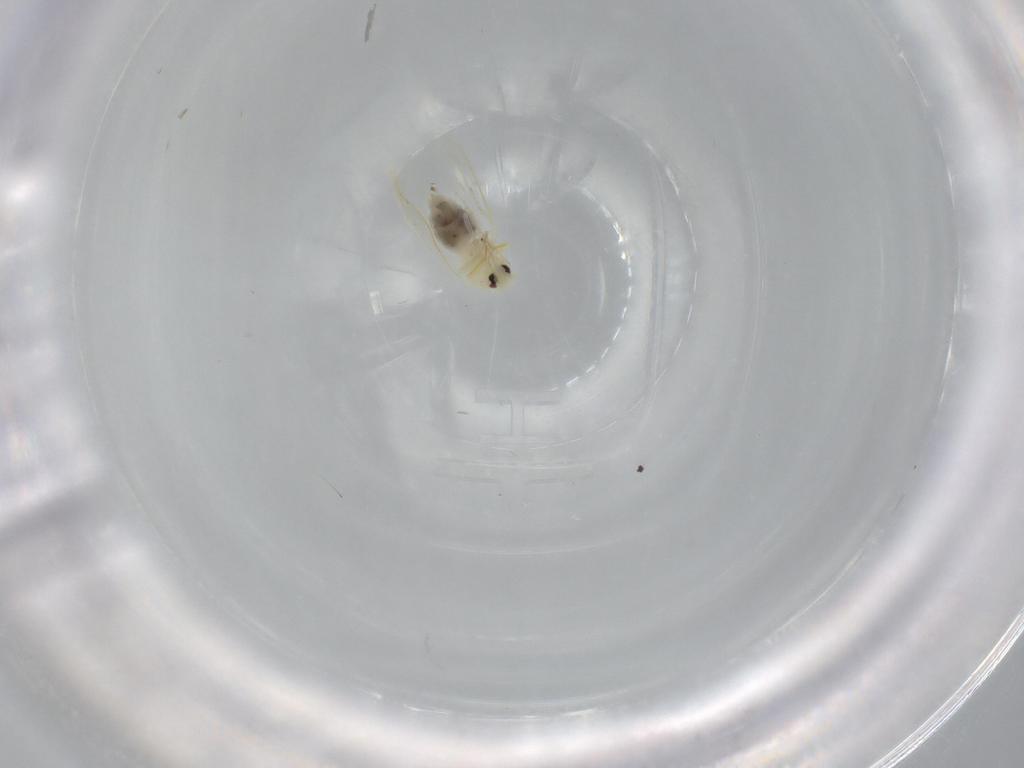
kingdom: Animalia
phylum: Arthropoda
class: Insecta
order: Hemiptera
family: Aleyrodidae
